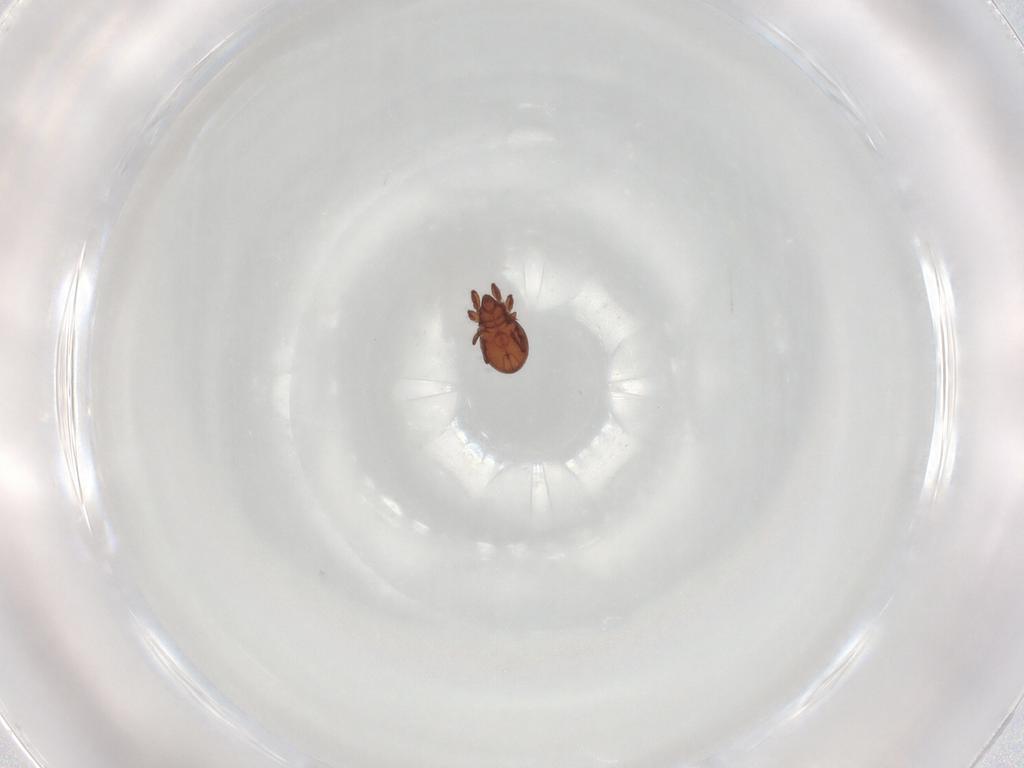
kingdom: Animalia
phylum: Arthropoda
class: Arachnida
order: Sarcoptiformes
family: Eremaeidae
